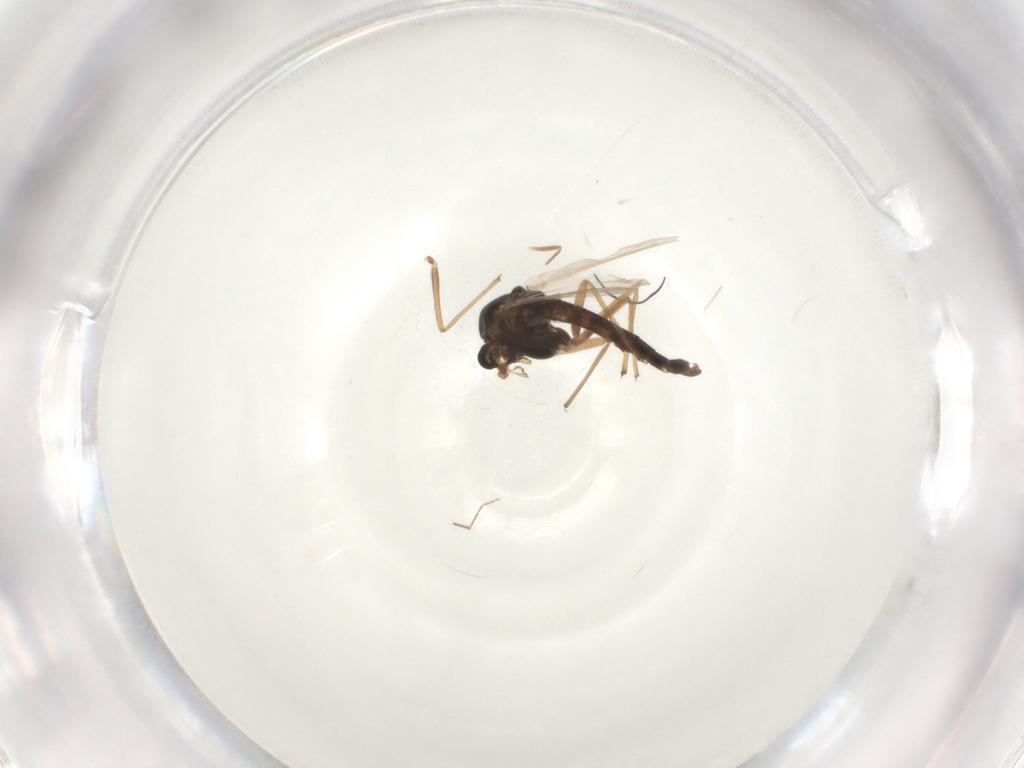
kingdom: Animalia
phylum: Arthropoda
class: Insecta
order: Diptera
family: Chironomidae
